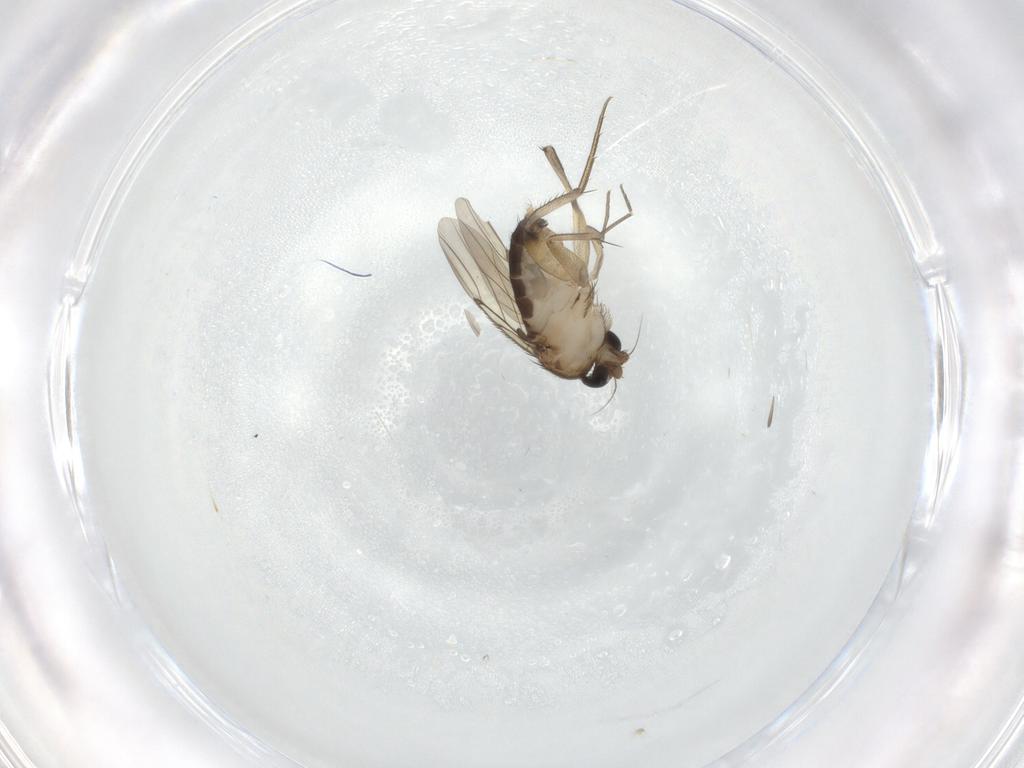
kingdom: Animalia
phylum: Arthropoda
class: Insecta
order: Diptera
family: Phoridae
